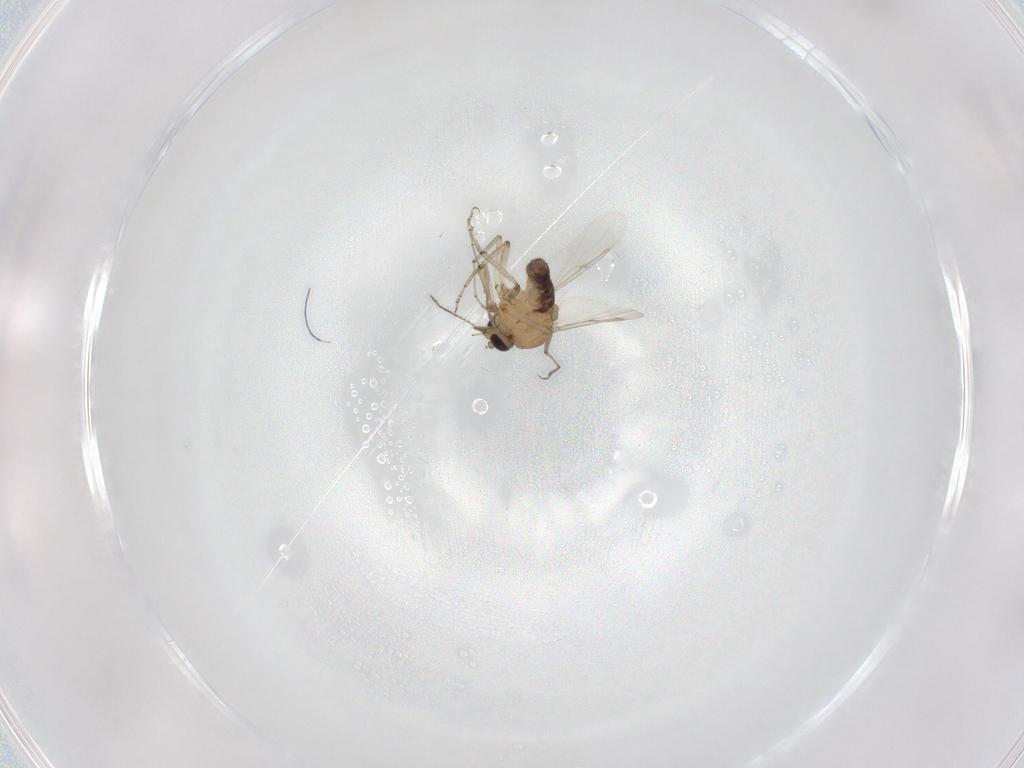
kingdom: Animalia
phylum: Arthropoda
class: Insecta
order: Diptera
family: Ceratopogonidae
